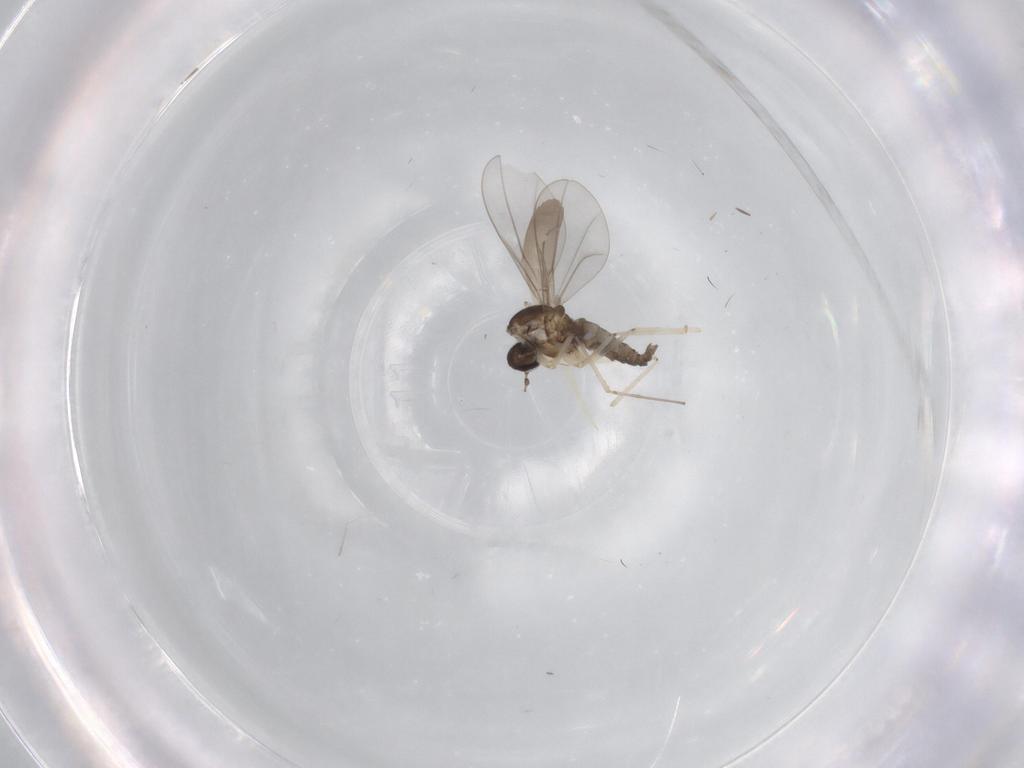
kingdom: Animalia
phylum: Arthropoda
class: Insecta
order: Diptera
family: Cecidomyiidae
